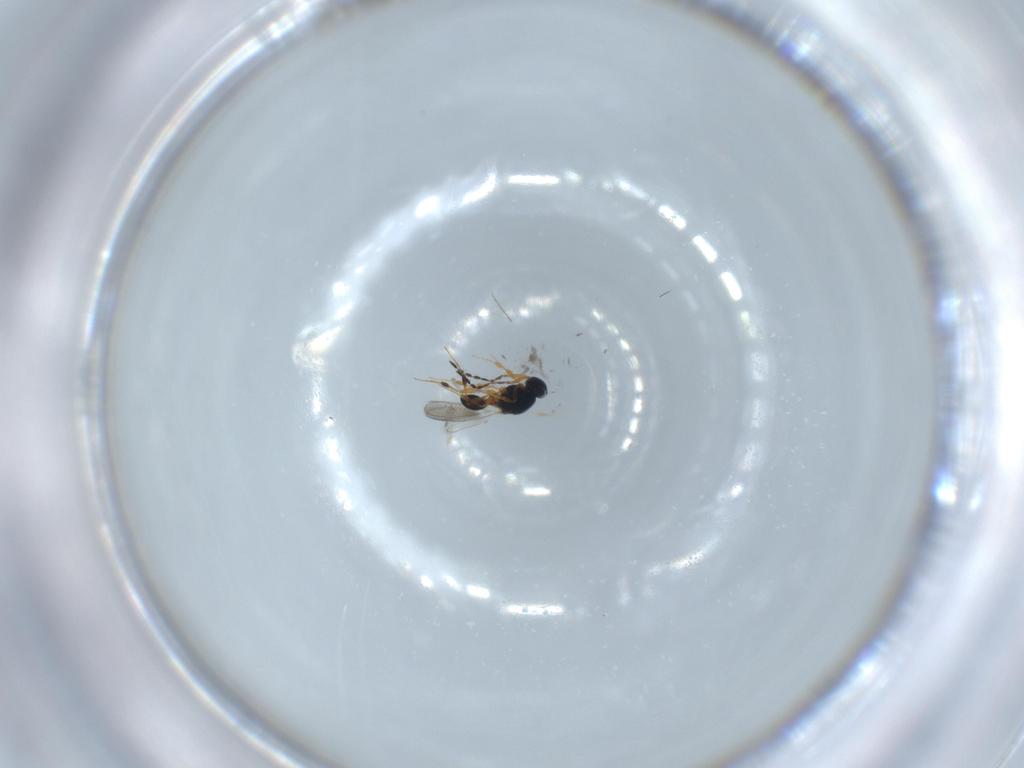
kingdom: Animalia
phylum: Arthropoda
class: Insecta
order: Hymenoptera
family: Platygastridae
